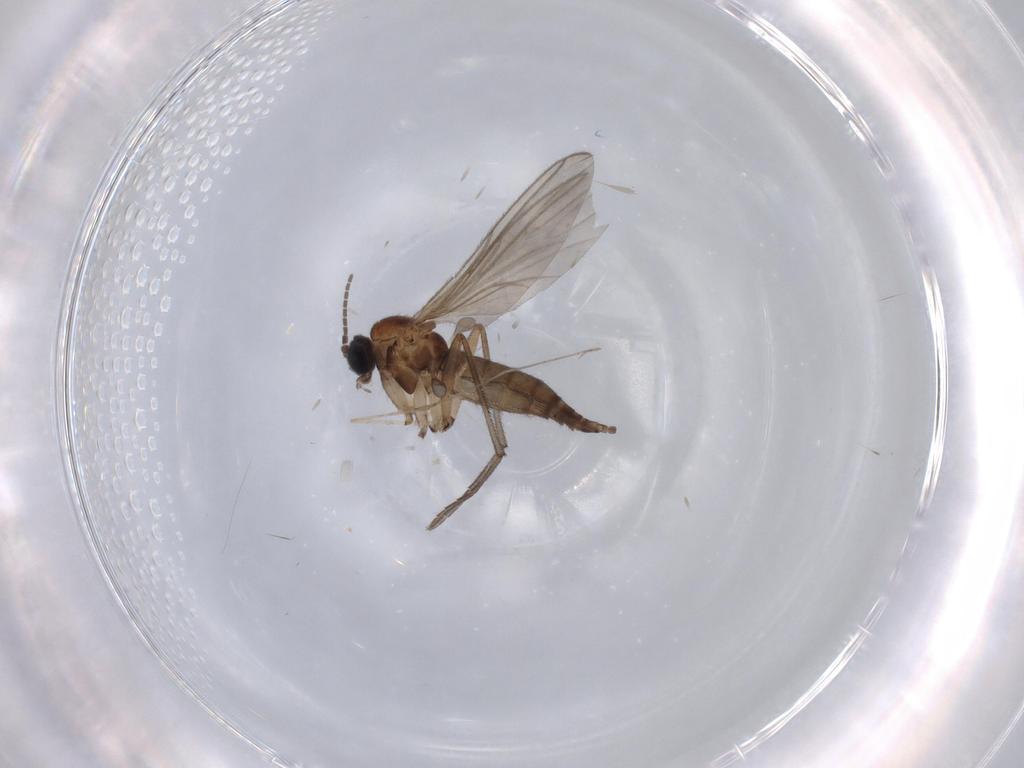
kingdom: Animalia
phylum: Arthropoda
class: Insecta
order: Diptera
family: Sciaridae
